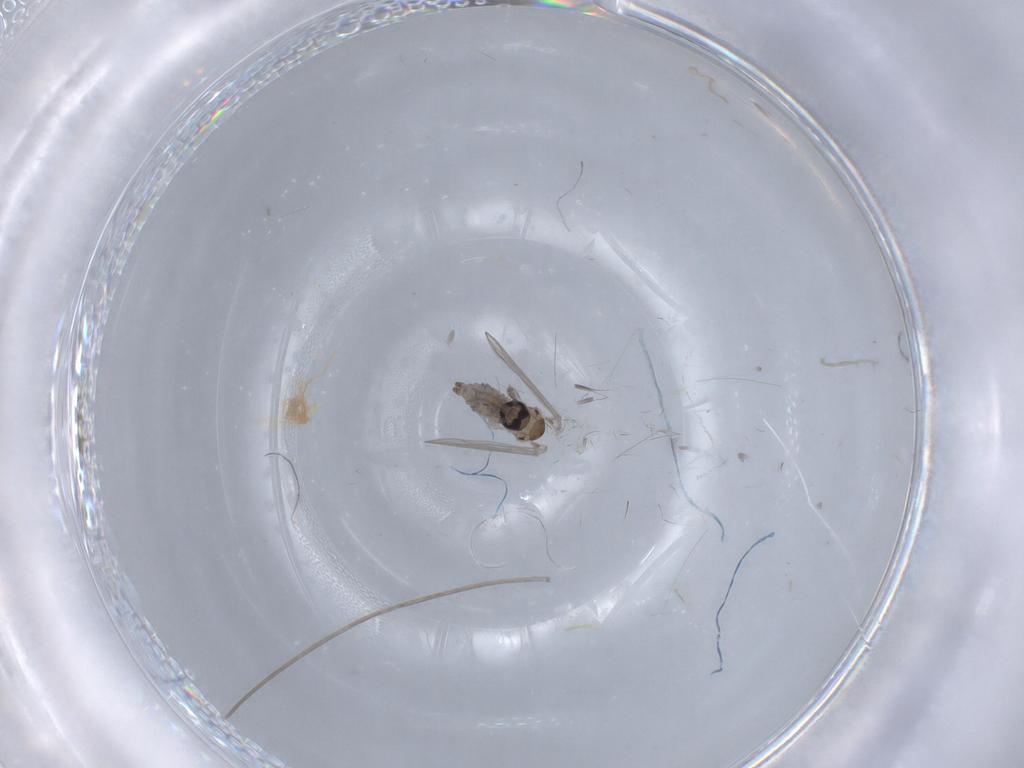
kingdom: Animalia
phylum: Arthropoda
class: Insecta
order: Diptera
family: Psychodidae
